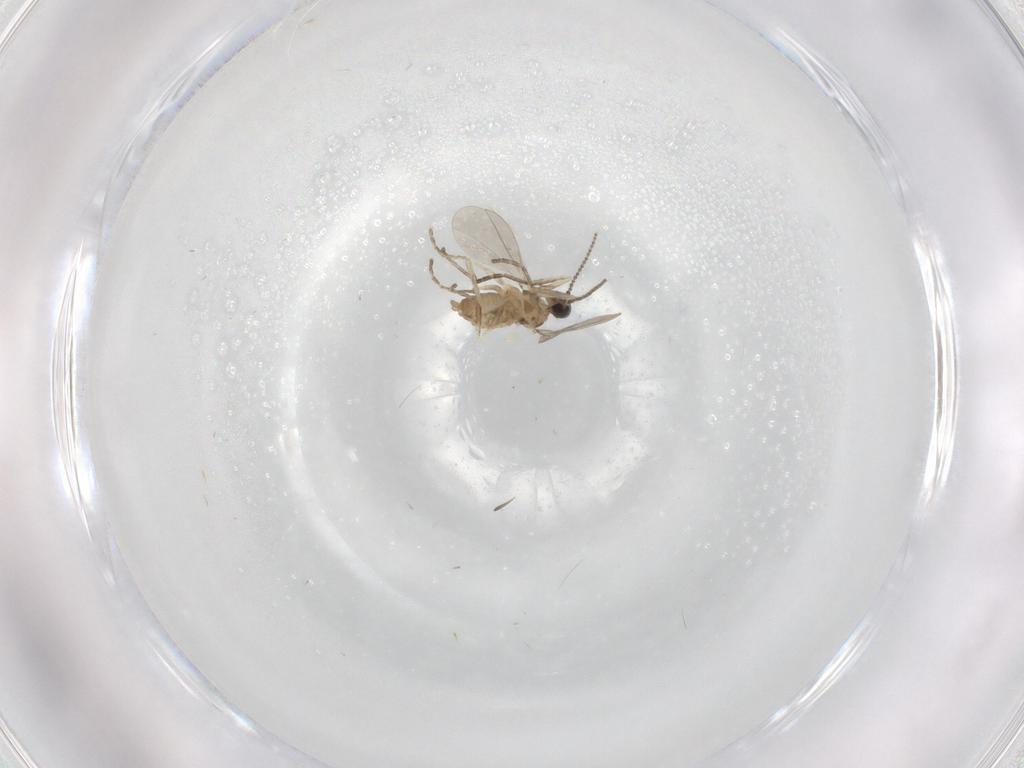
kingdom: Animalia
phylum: Arthropoda
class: Insecta
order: Diptera
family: Cecidomyiidae
